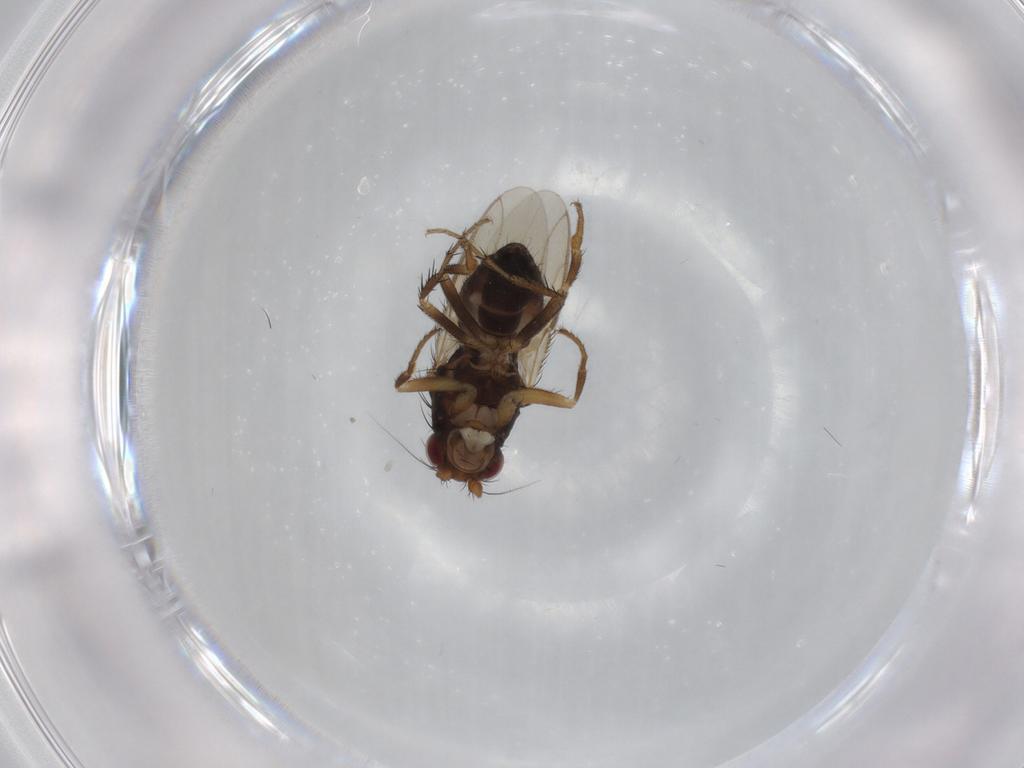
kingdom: Animalia
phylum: Arthropoda
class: Insecta
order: Diptera
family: Sphaeroceridae
